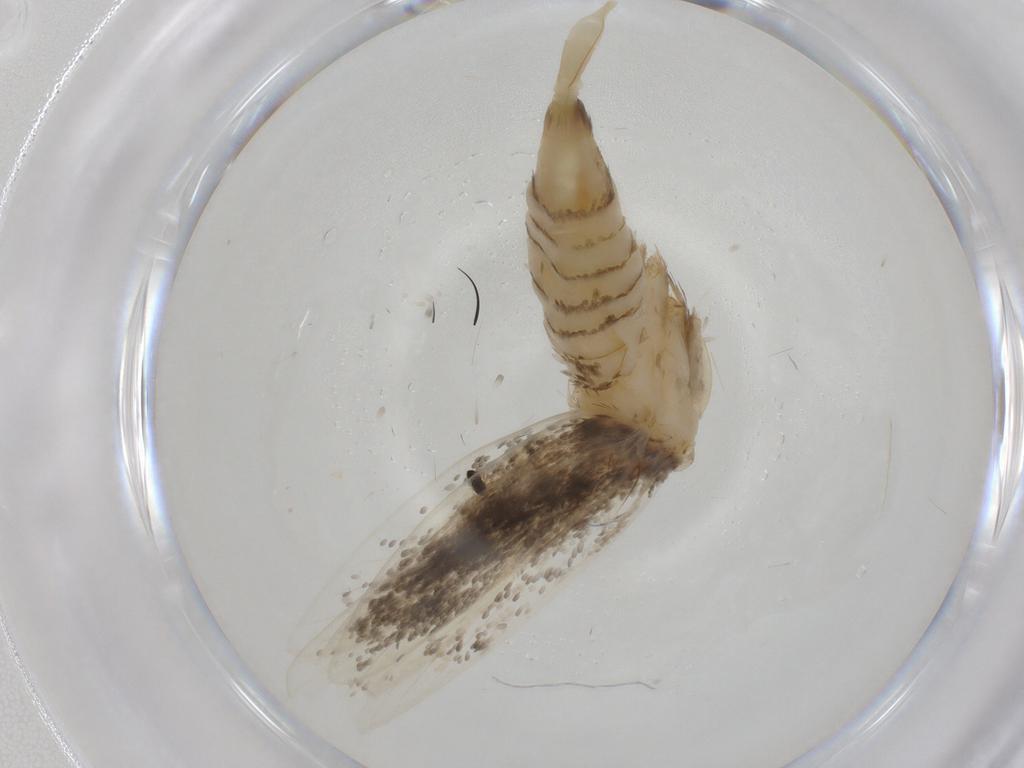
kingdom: Animalia
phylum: Arthropoda
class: Insecta
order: Lepidoptera
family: Tineidae
